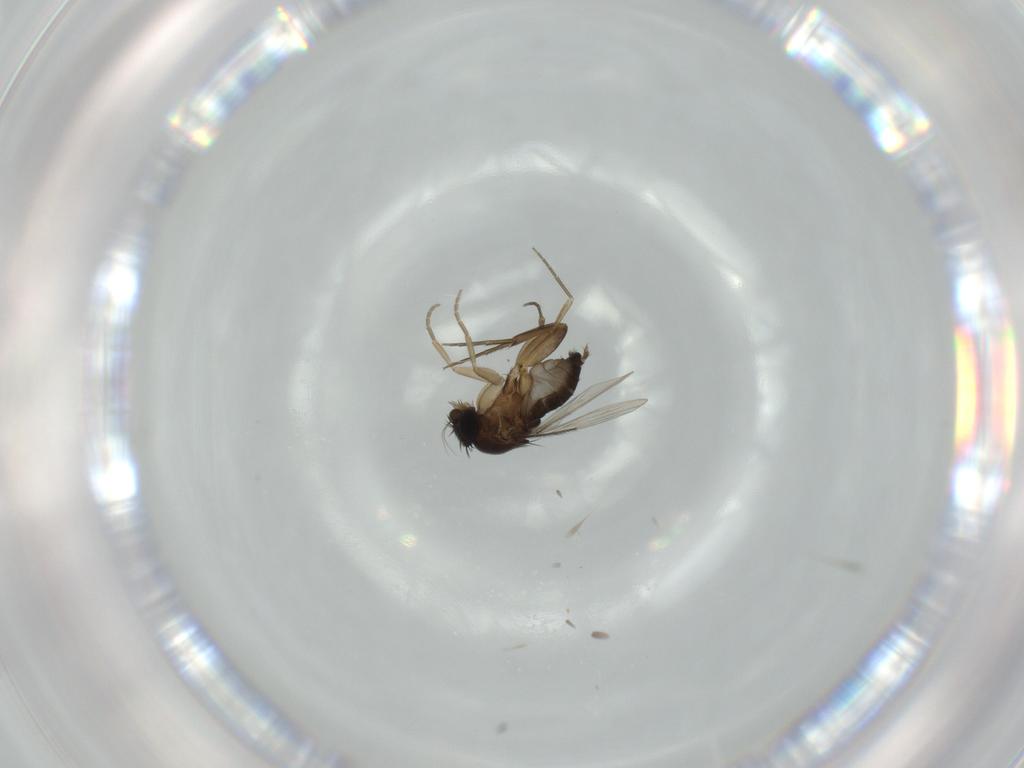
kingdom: Animalia
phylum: Arthropoda
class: Insecta
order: Diptera
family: Phoridae
